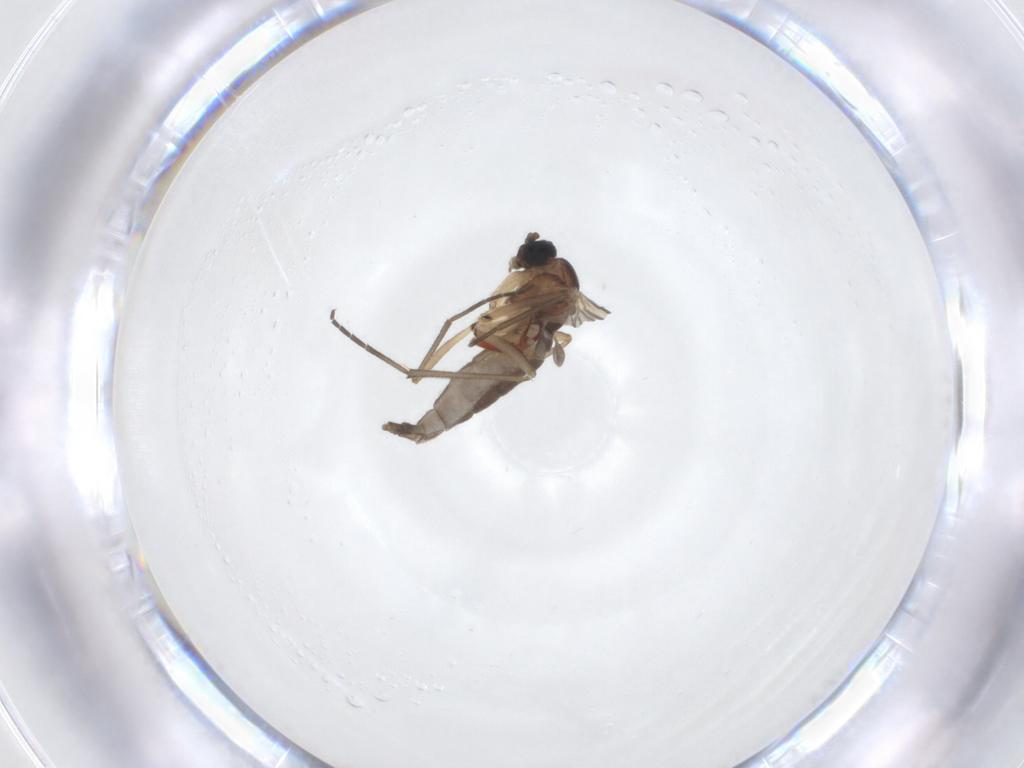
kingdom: Animalia
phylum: Arthropoda
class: Insecta
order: Diptera
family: Sciaridae
